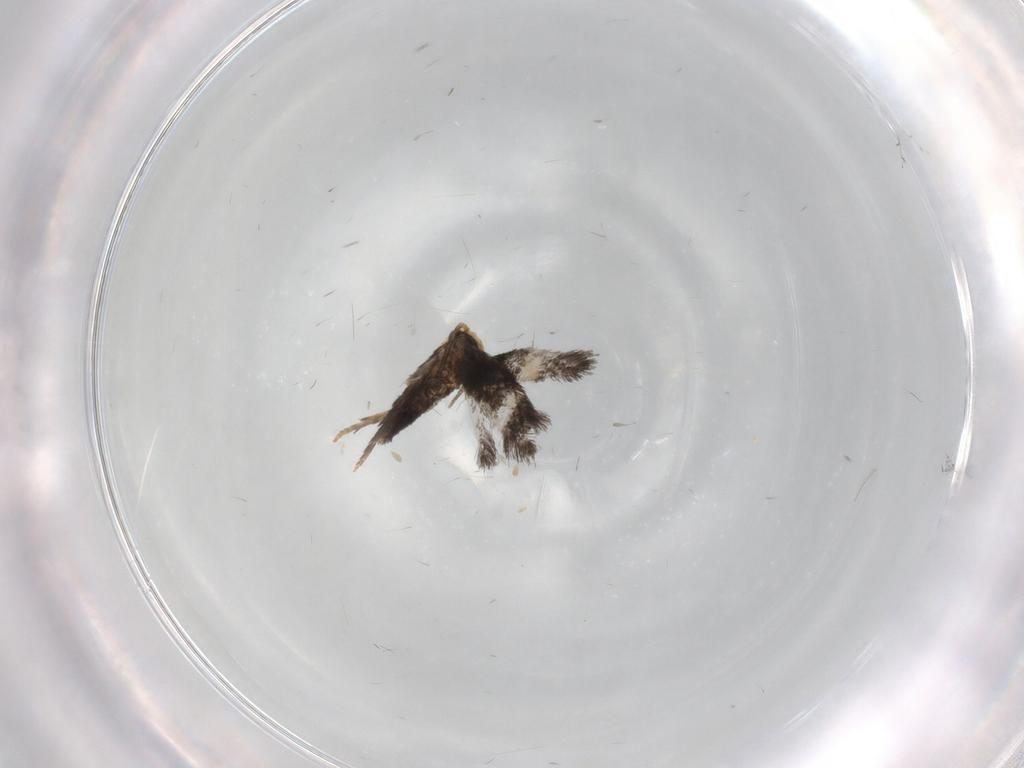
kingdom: Animalia
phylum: Arthropoda
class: Insecta
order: Lepidoptera
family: Nepticulidae
